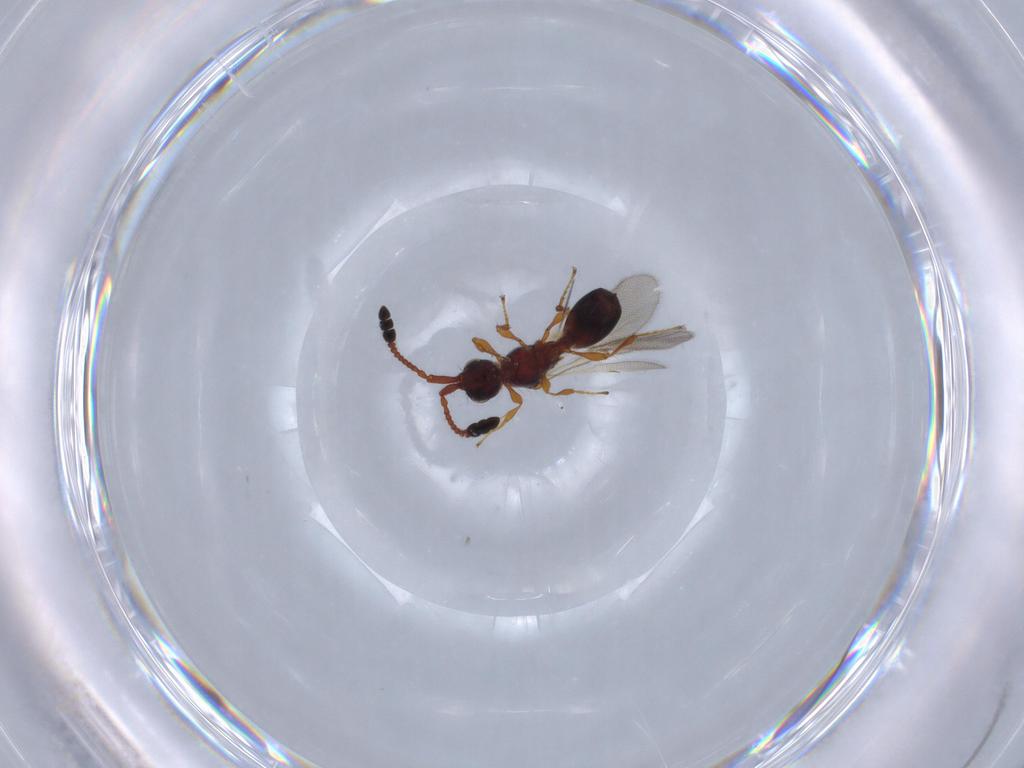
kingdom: Animalia
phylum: Arthropoda
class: Insecta
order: Hymenoptera
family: Diapriidae
